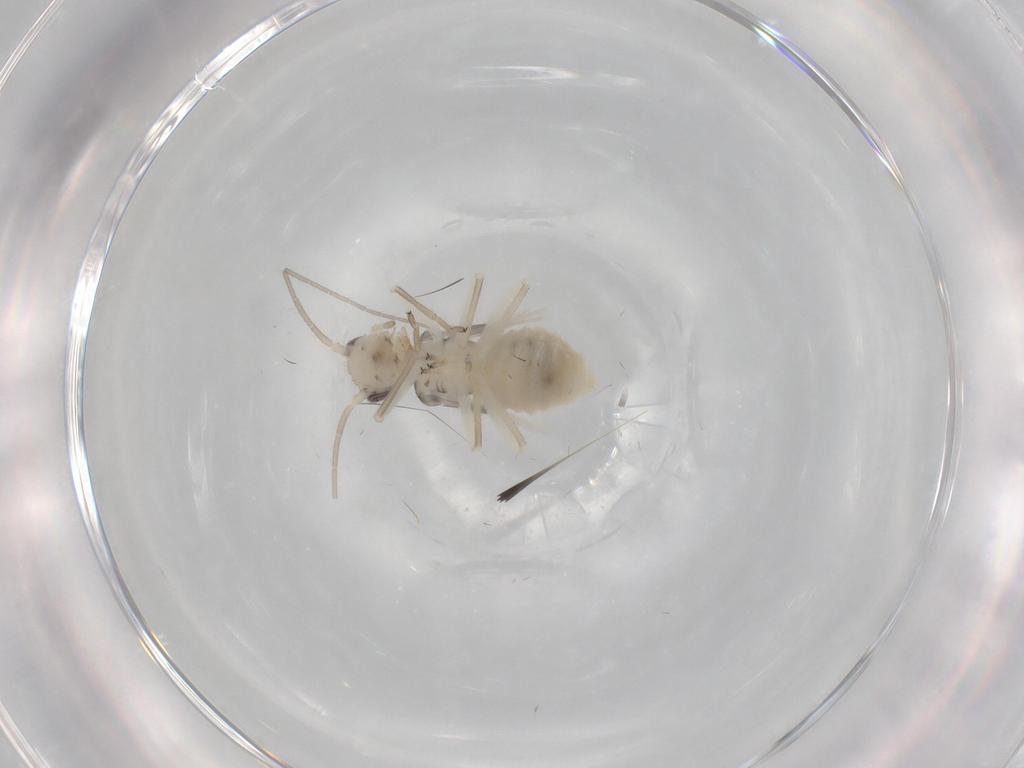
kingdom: Animalia
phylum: Arthropoda
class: Insecta
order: Psocodea
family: Caeciliusidae
